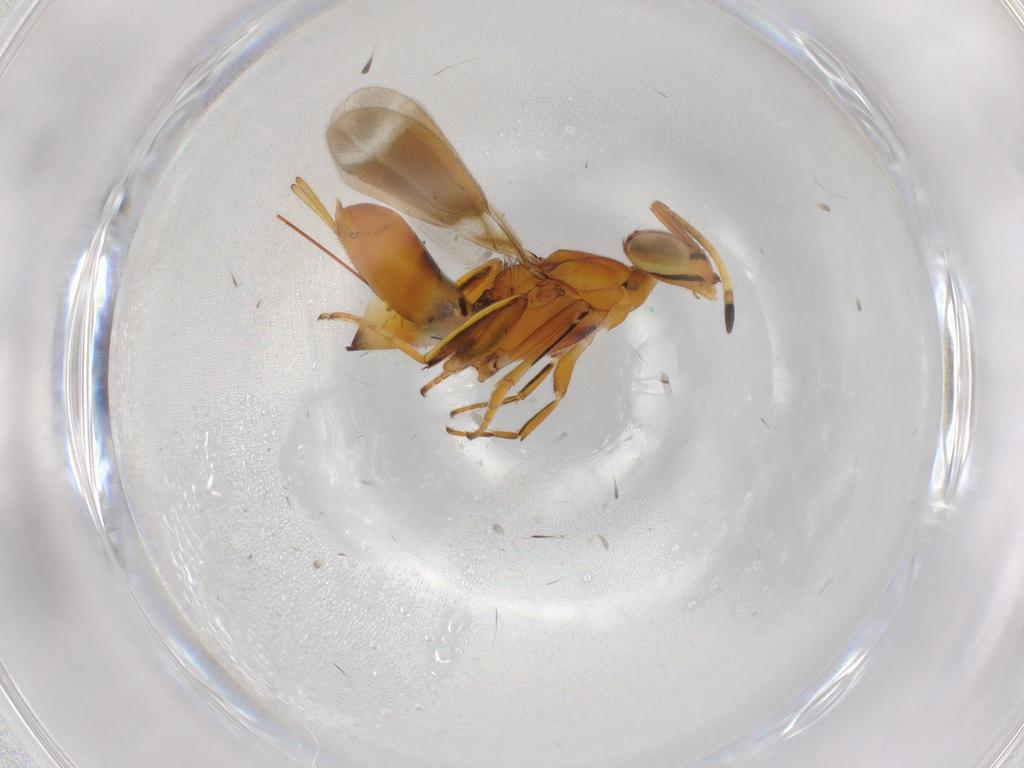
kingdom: Animalia
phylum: Arthropoda
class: Insecta
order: Hymenoptera
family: Eupelmidae
